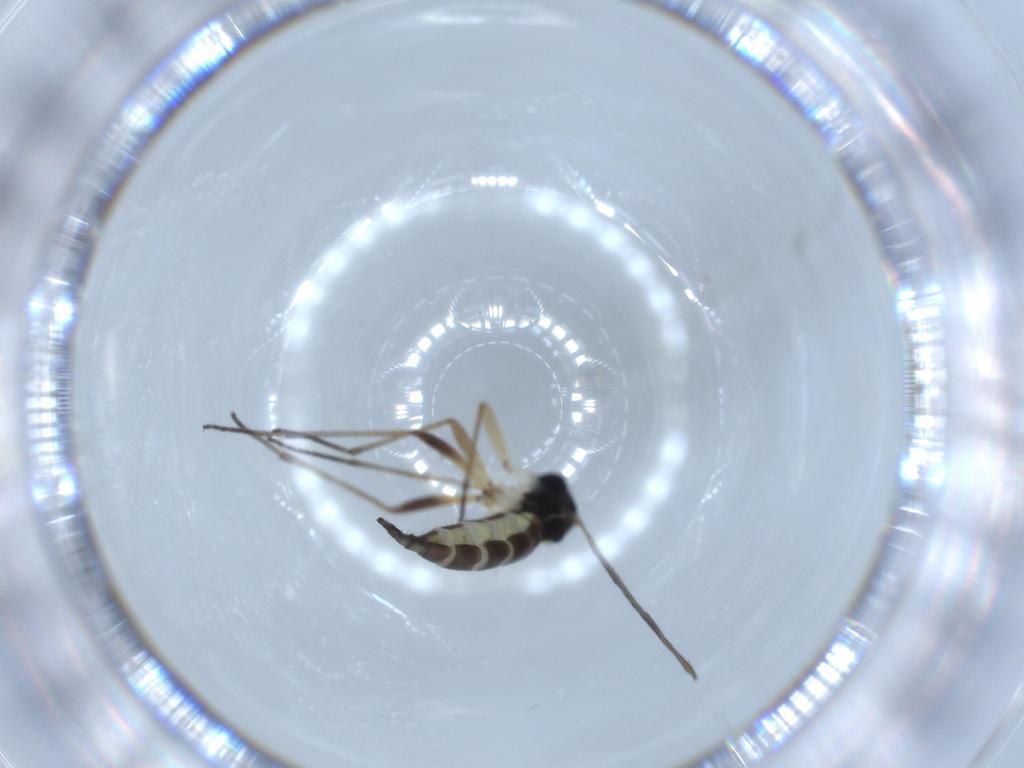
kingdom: Animalia
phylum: Arthropoda
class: Insecta
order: Diptera
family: Sciaridae
